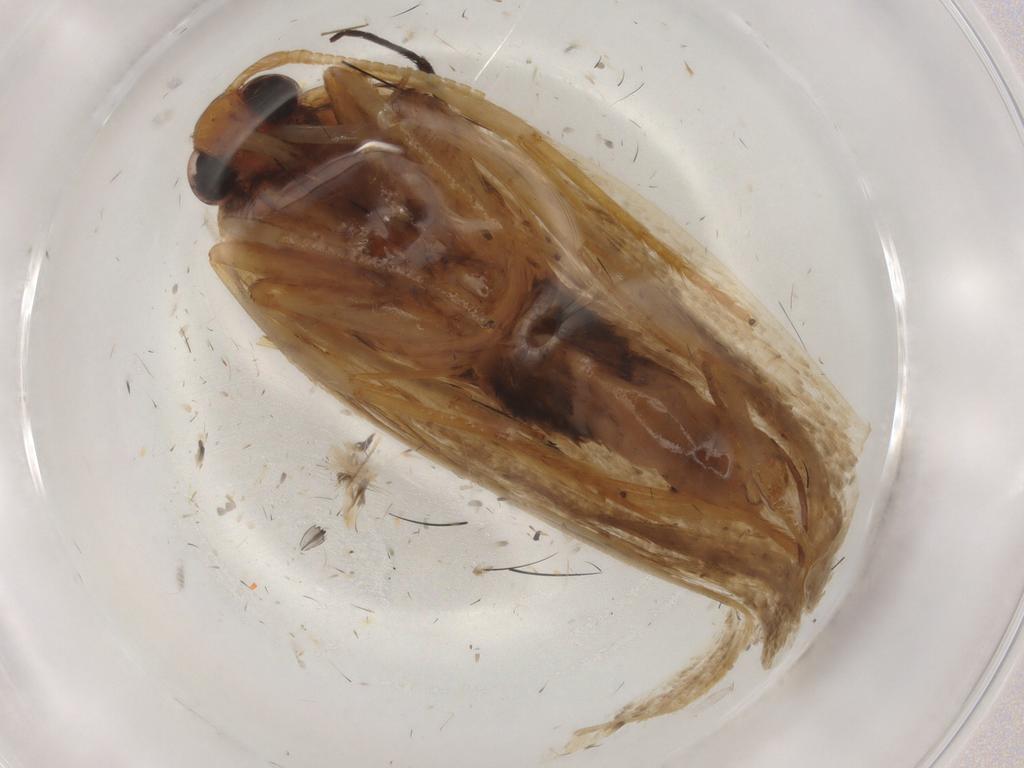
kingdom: Animalia
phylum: Arthropoda
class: Insecta
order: Lepidoptera
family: Lecithoceridae
